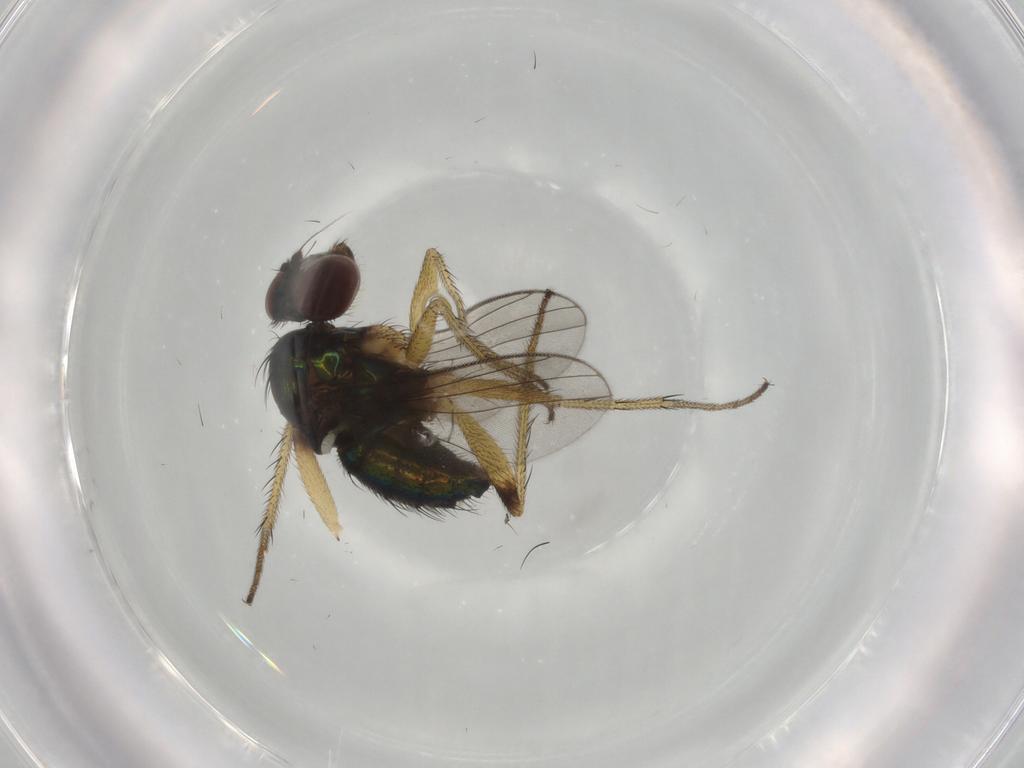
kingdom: Animalia
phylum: Arthropoda
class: Insecta
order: Diptera
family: Dolichopodidae
